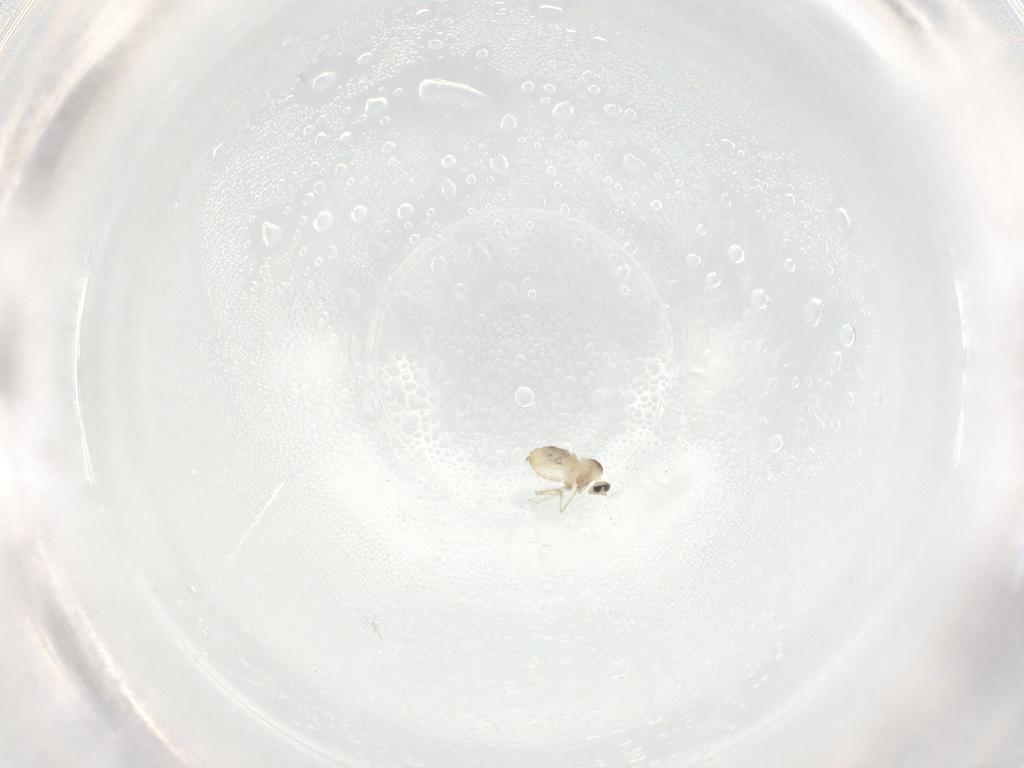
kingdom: Animalia
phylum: Arthropoda
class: Insecta
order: Diptera
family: Cecidomyiidae
